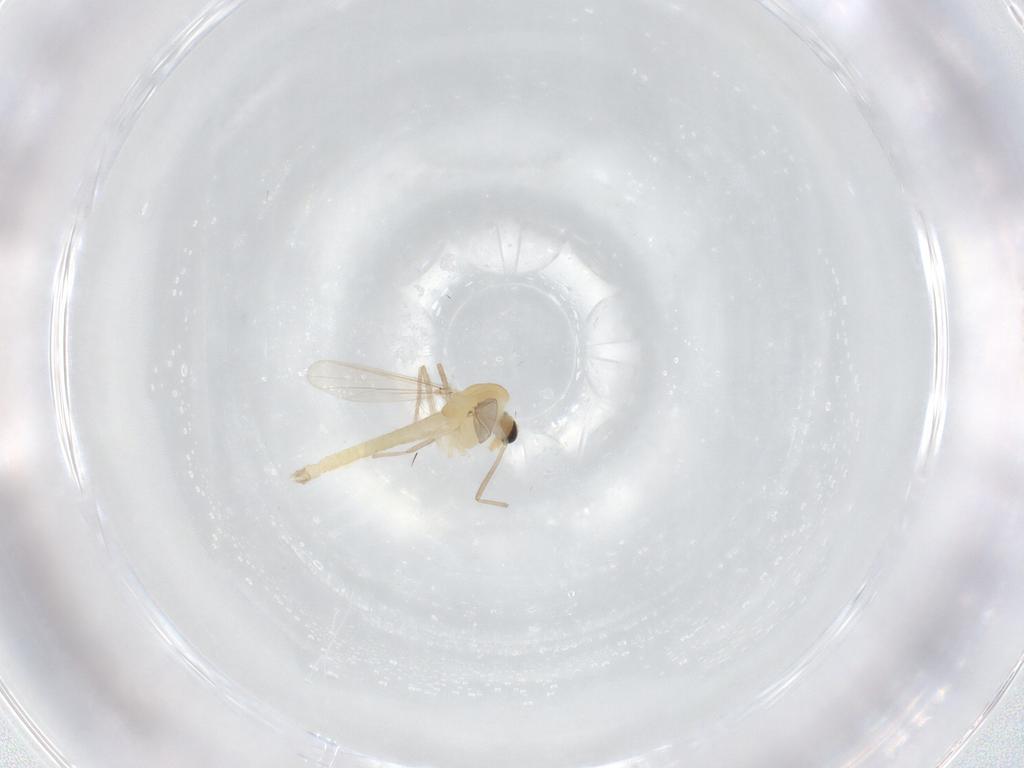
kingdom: Animalia
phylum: Arthropoda
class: Insecta
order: Diptera
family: Chironomidae
